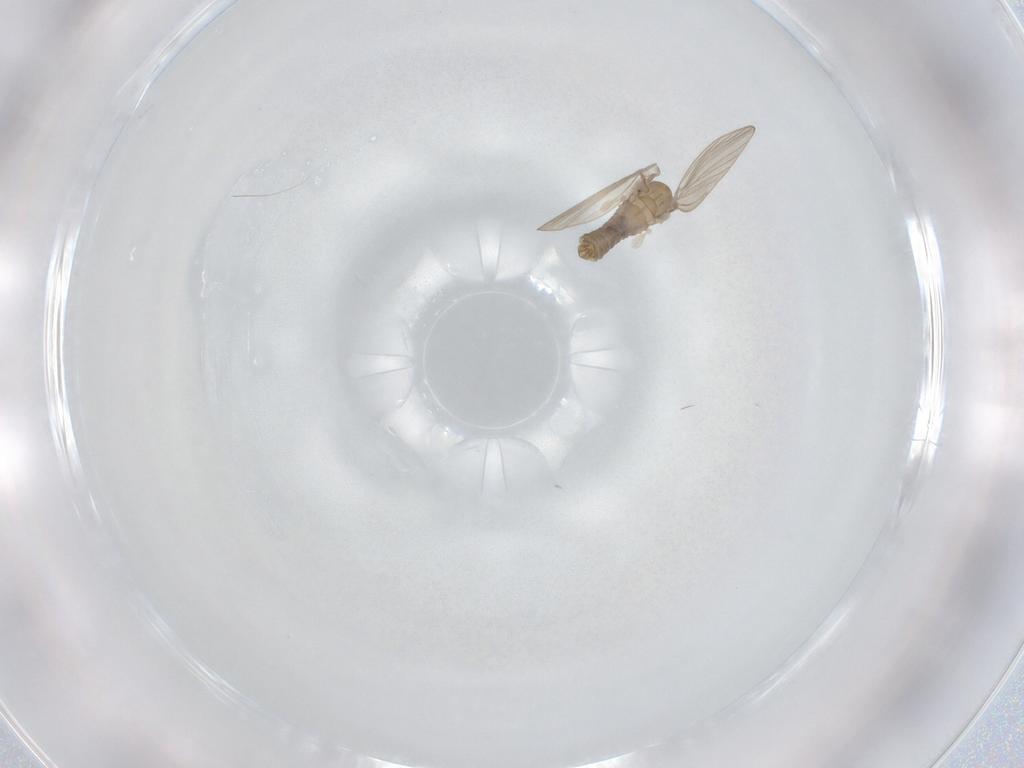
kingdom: Animalia
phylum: Arthropoda
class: Insecta
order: Diptera
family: Psychodidae
